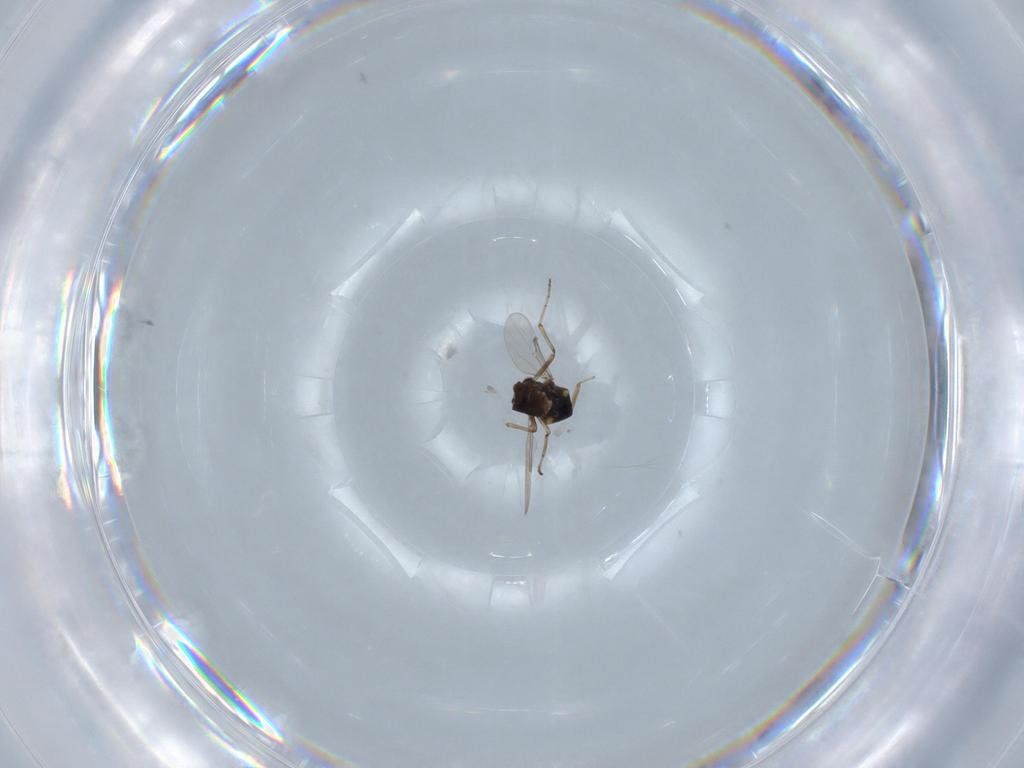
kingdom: Animalia
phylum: Arthropoda
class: Insecta
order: Diptera
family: Ceratopogonidae
